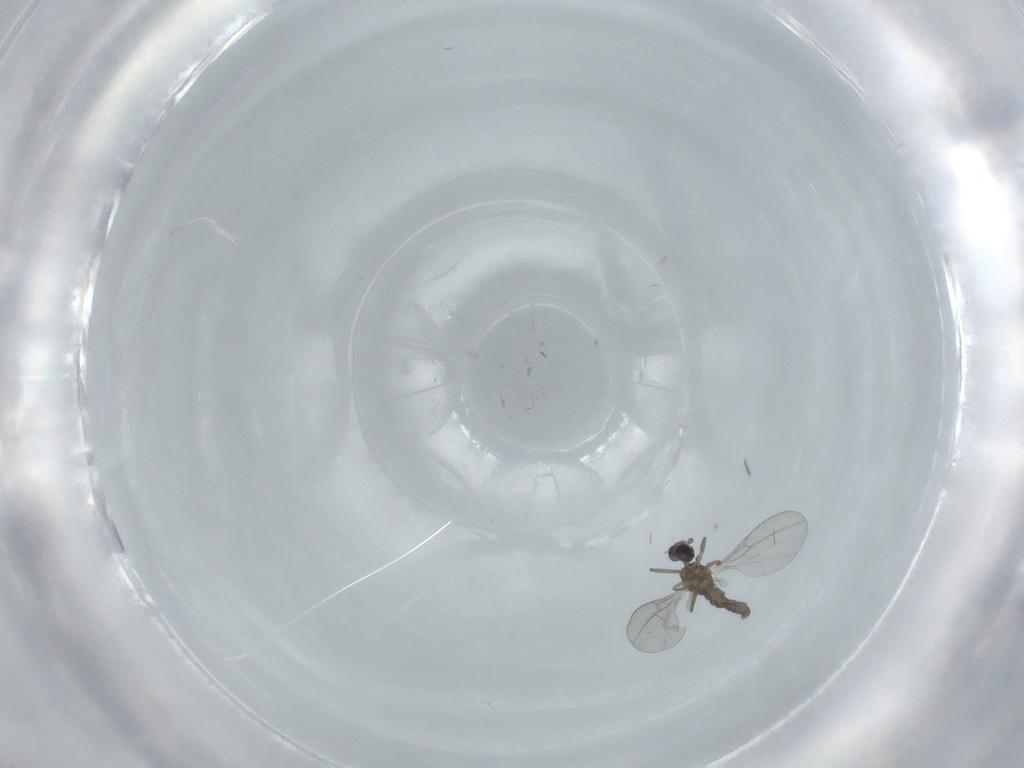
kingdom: Animalia
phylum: Arthropoda
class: Insecta
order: Diptera
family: Cecidomyiidae
